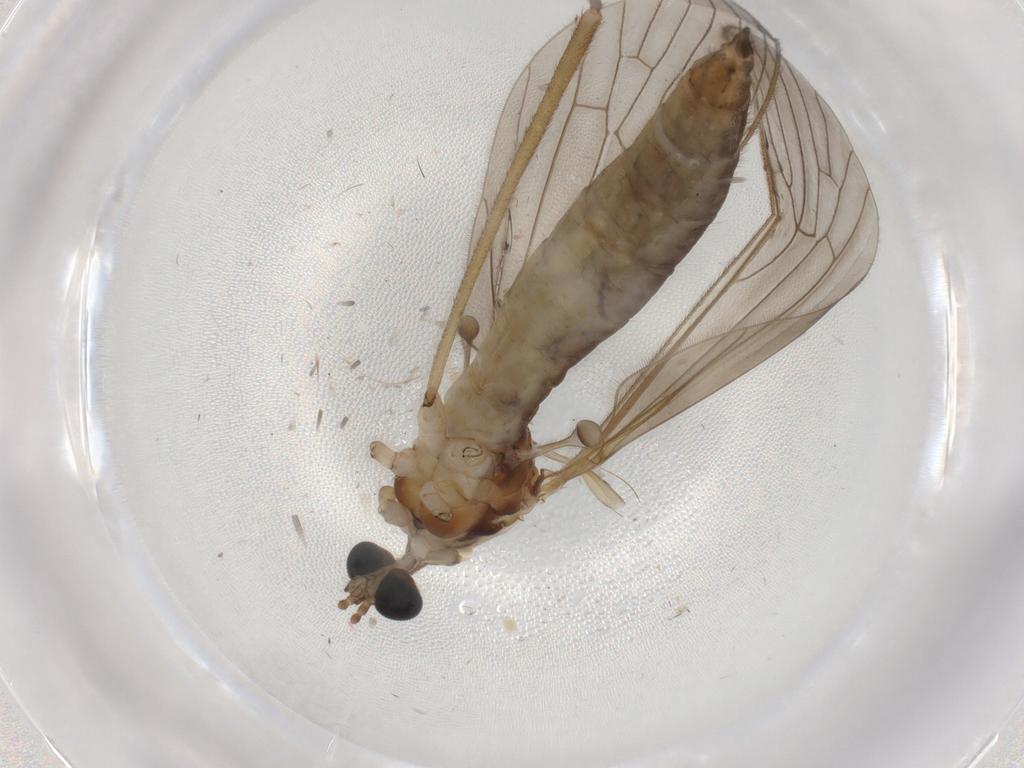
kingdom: Animalia
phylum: Arthropoda
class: Insecta
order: Diptera
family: Limoniidae
